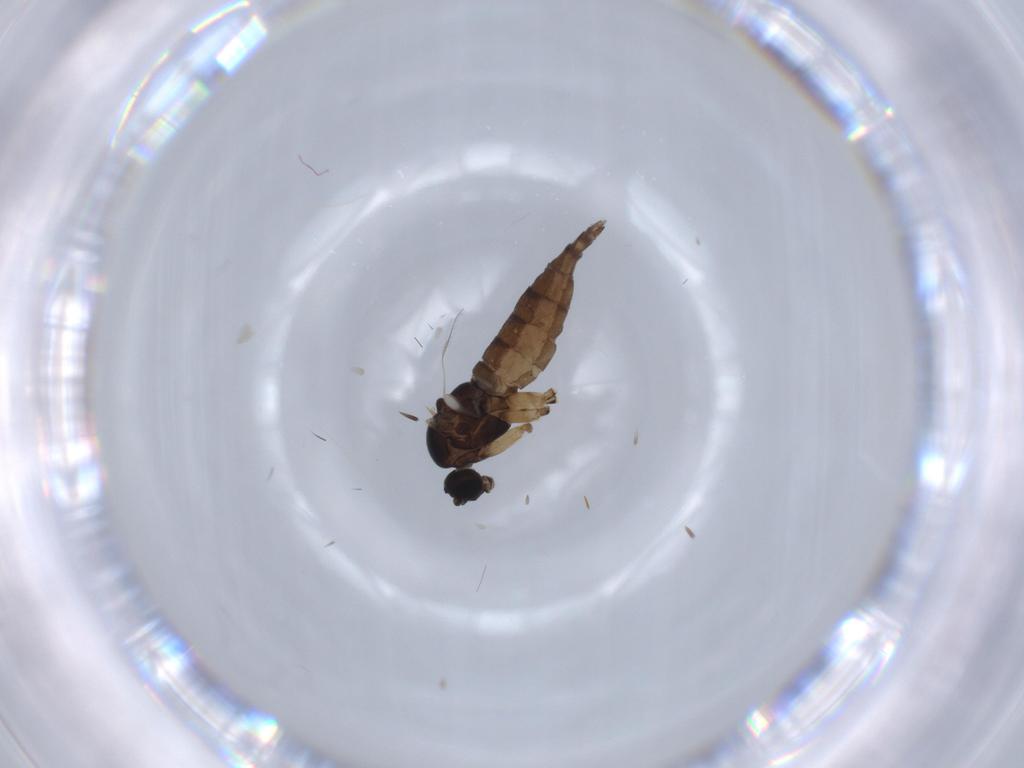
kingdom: Animalia
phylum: Arthropoda
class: Insecta
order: Diptera
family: Sciaridae
